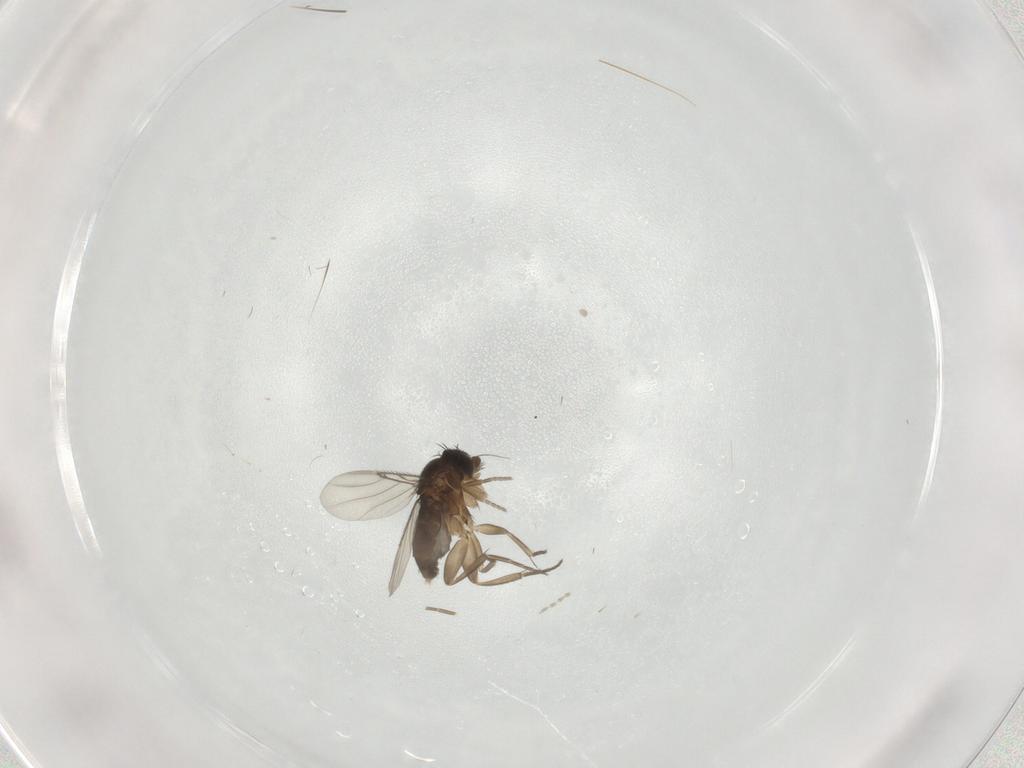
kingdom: Animalia
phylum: Arthropoda
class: Insecta
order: Diptera
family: Phoridae
